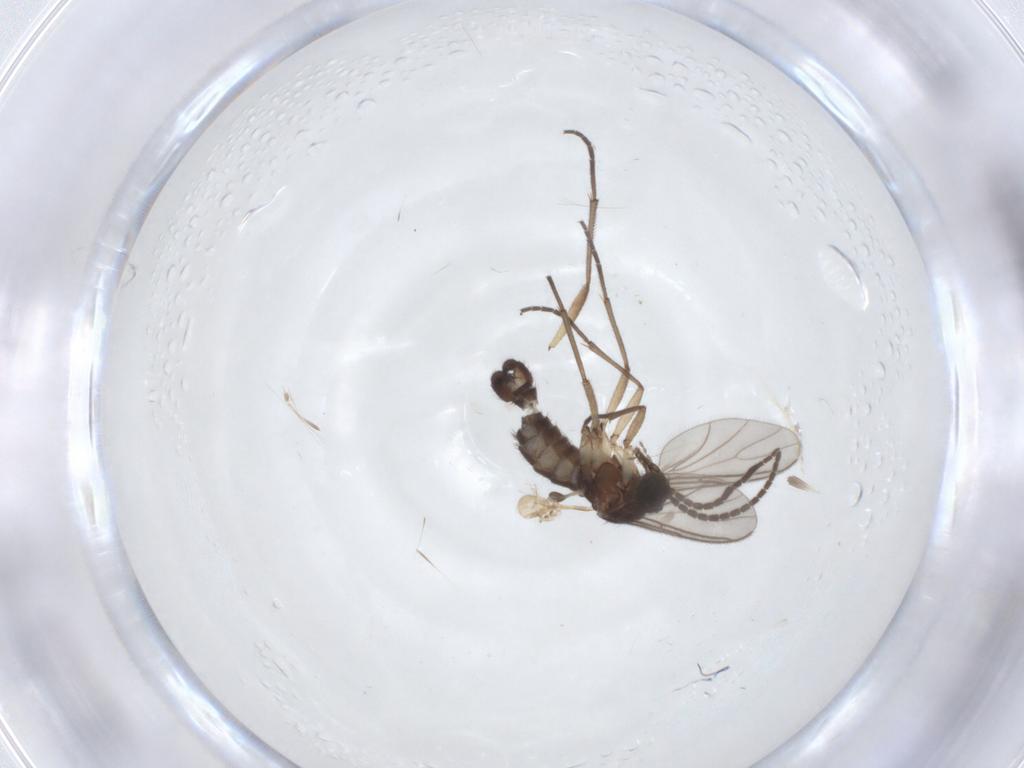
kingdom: Animalia
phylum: Arthropoda
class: Insecta
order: Diptera
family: Sciaridae
